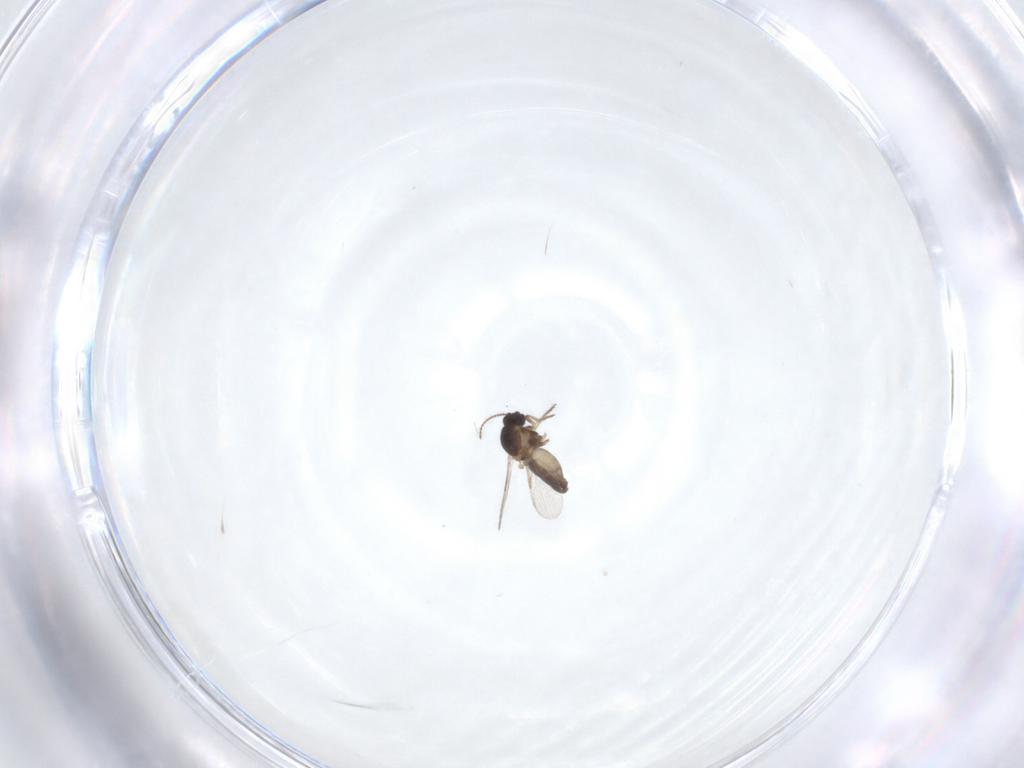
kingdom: Animalia
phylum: Arthropoda
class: Insecta
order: Diptera
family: Ceratopogonidae
